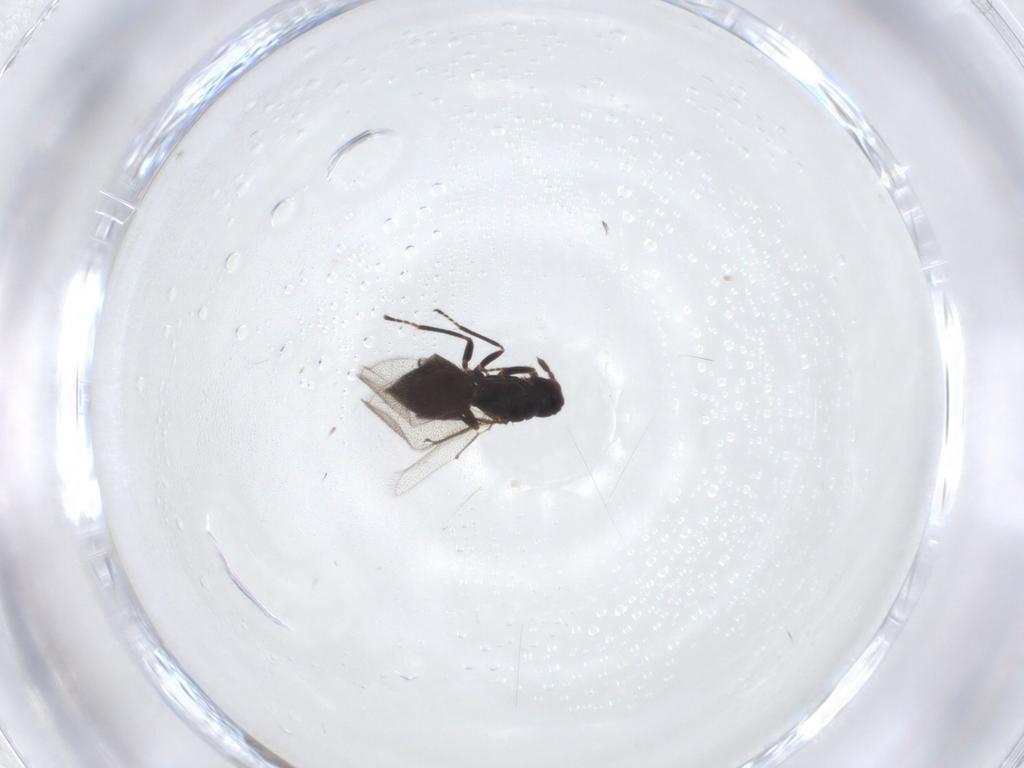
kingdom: Animalia
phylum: Arthropoda
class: Insecta
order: Hymenoptera
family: Eulophidae
